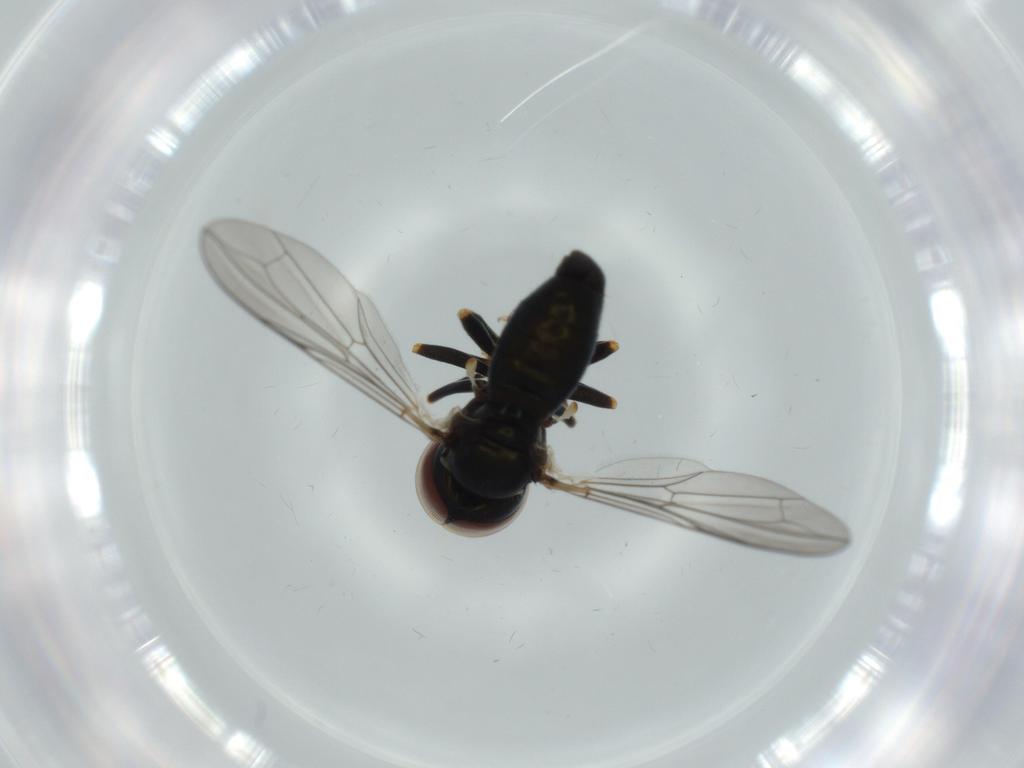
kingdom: Animalia
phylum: Arthropoda
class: Insecta
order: Diptera
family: Pipunculidae
